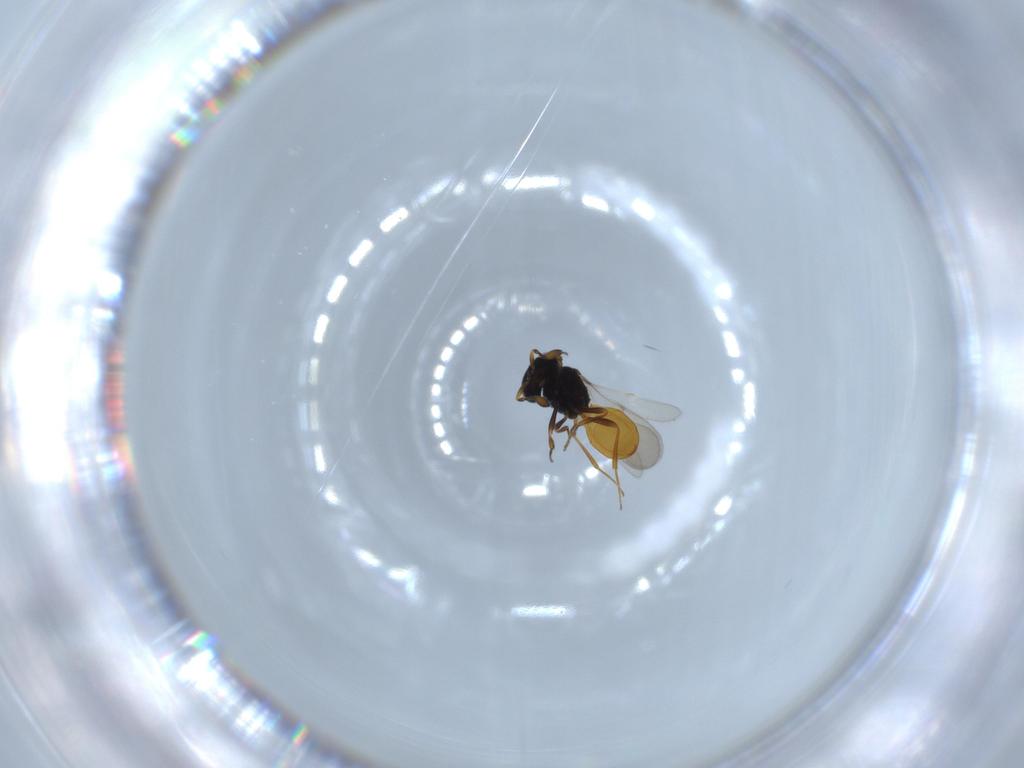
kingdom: Animalia
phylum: Arthropoda
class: Insecta
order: Hymenoptera
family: Scelionidae
